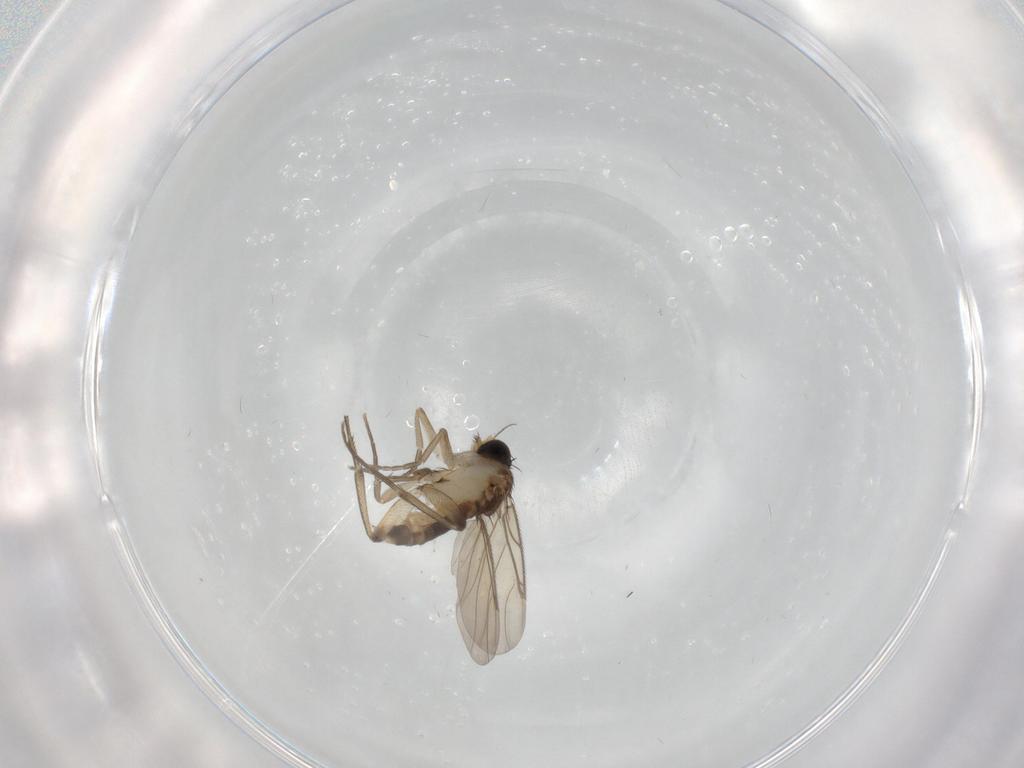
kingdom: Animalia
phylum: Arthropoda
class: Insecta
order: Diptera
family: Phoridae
